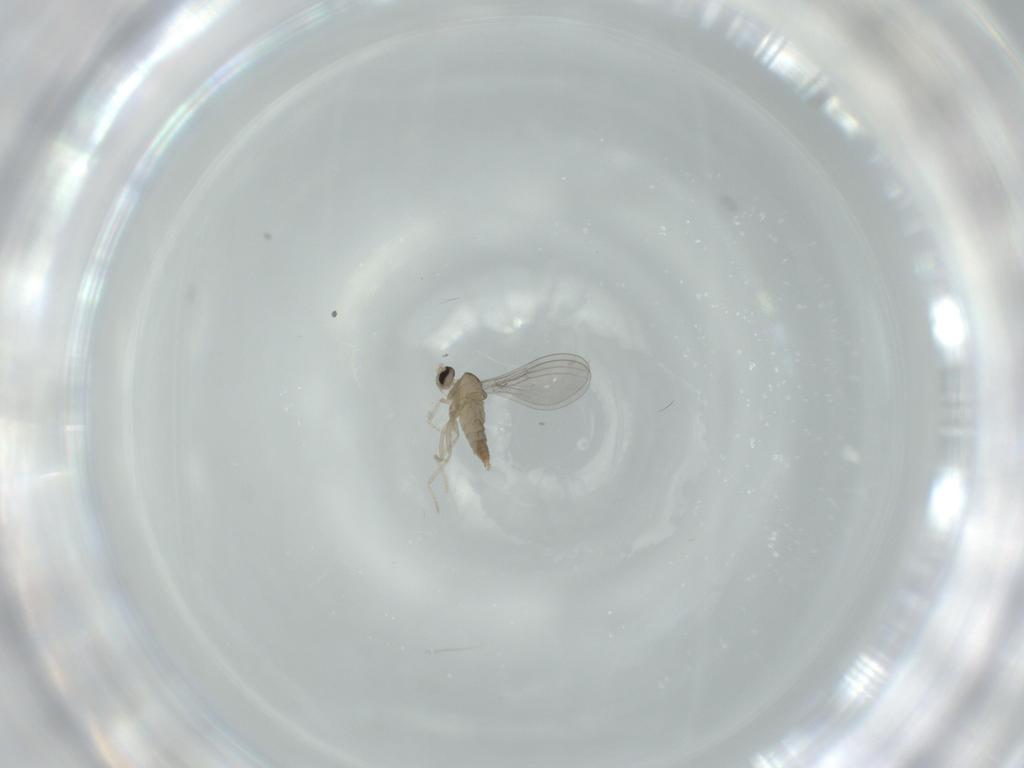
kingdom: Animalia
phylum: Arthropoda
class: Insecta
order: Diptera
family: Cecidomyiidae
